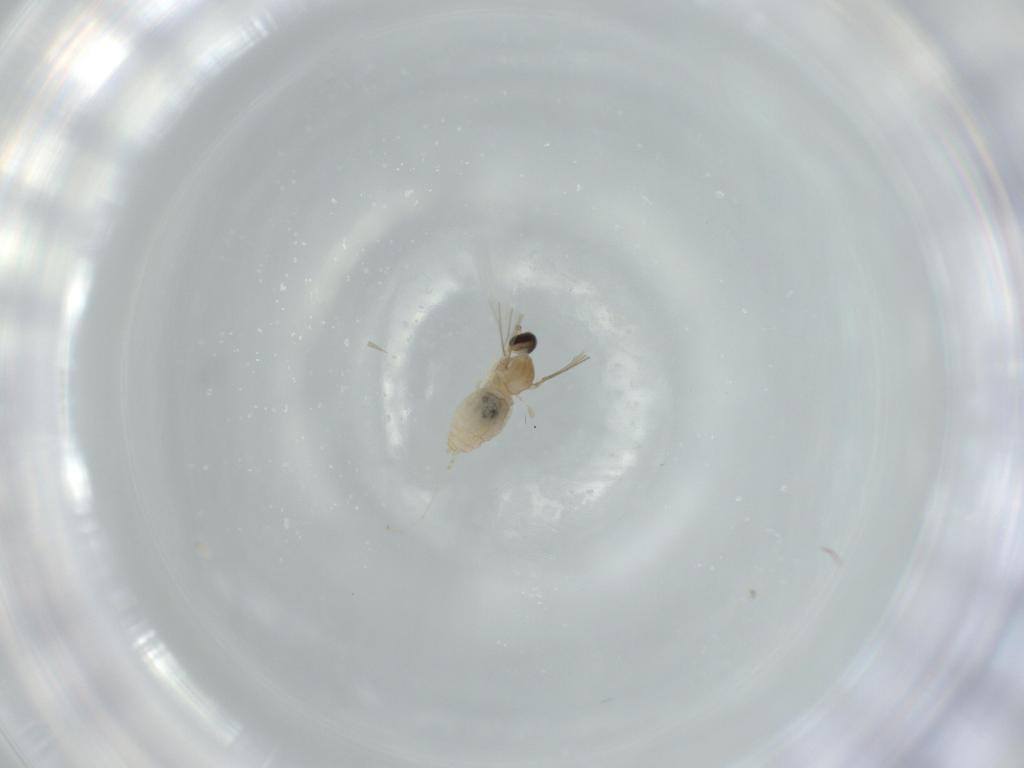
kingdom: Animalia
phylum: Arthropoda
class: Insecta
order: Diptera
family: Cecidomyiidae
